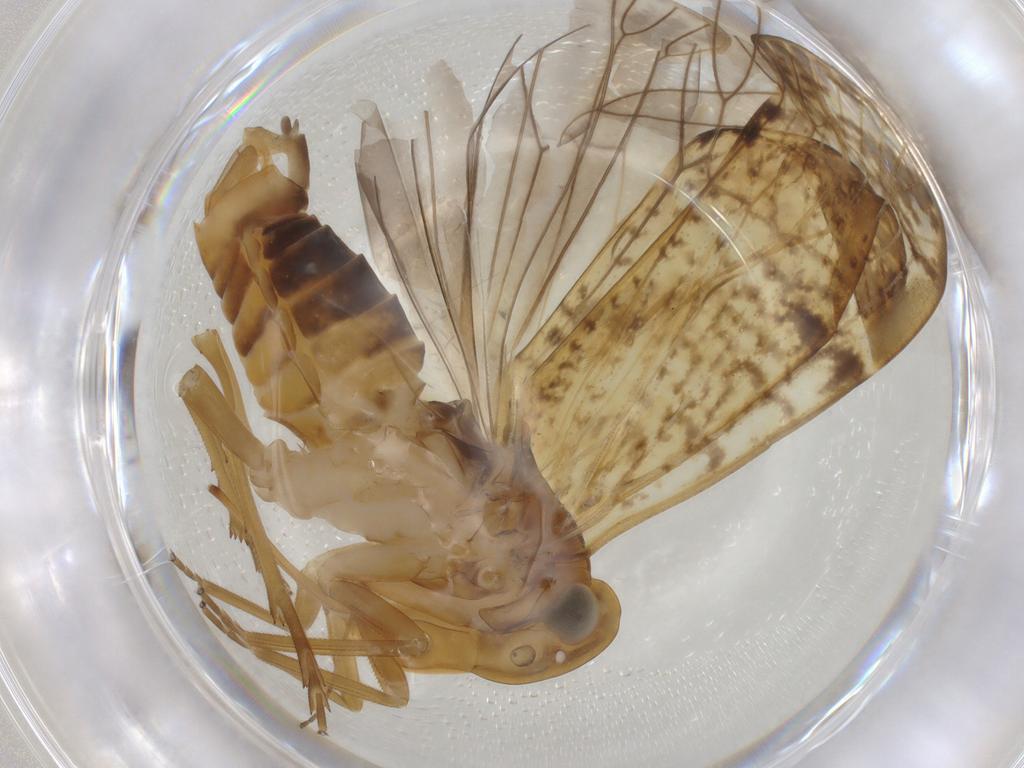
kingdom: Animalia
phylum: Arthropoda
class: Insecta
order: Hemiptera
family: Cixiidae
